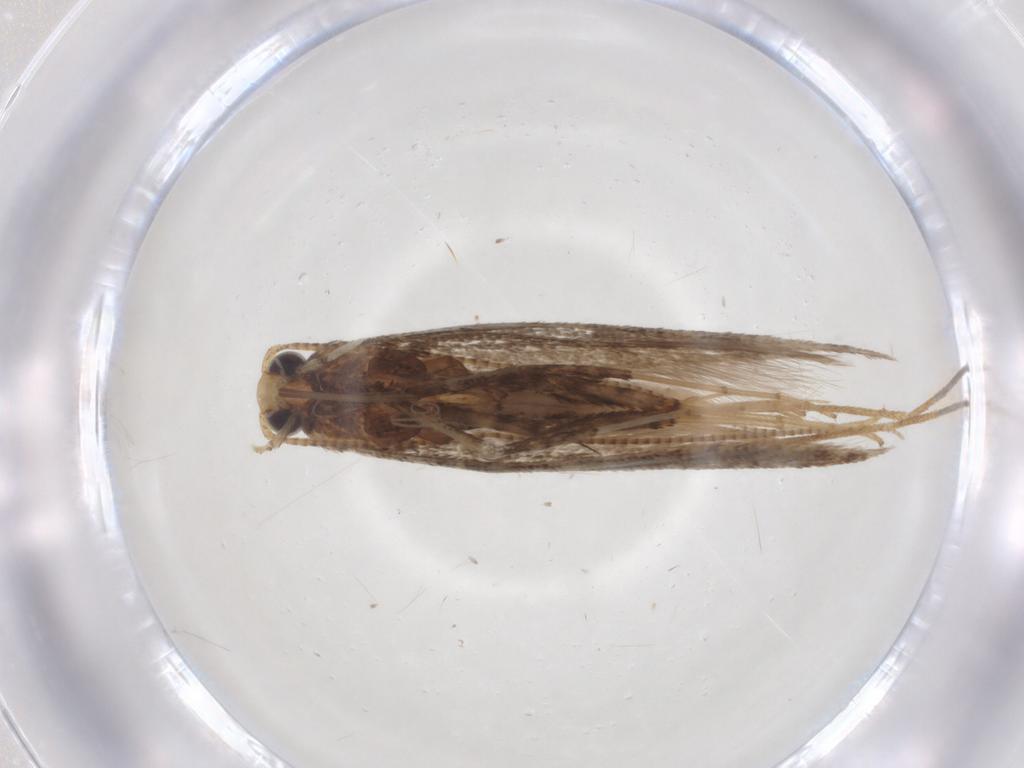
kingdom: Animalia
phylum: Arthropoda
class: Insecta
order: Lepidoptera
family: Gracillariidae
